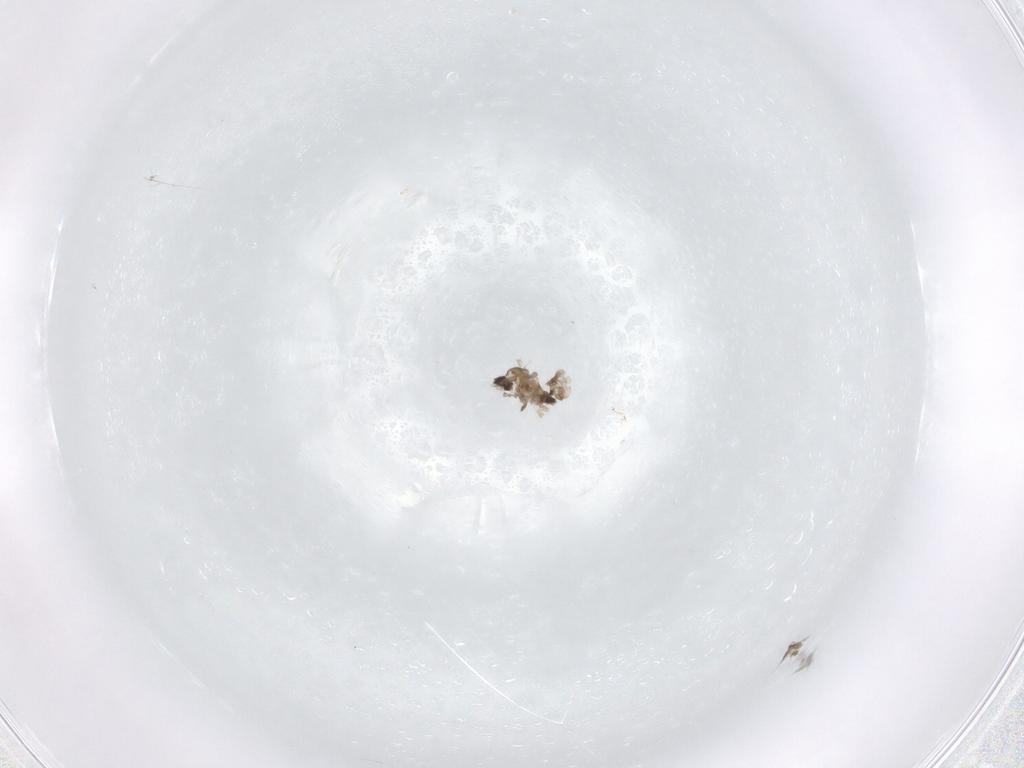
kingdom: Animalia
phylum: Arthropoda
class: Insecta
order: Diptera
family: Cecidomyiidae
